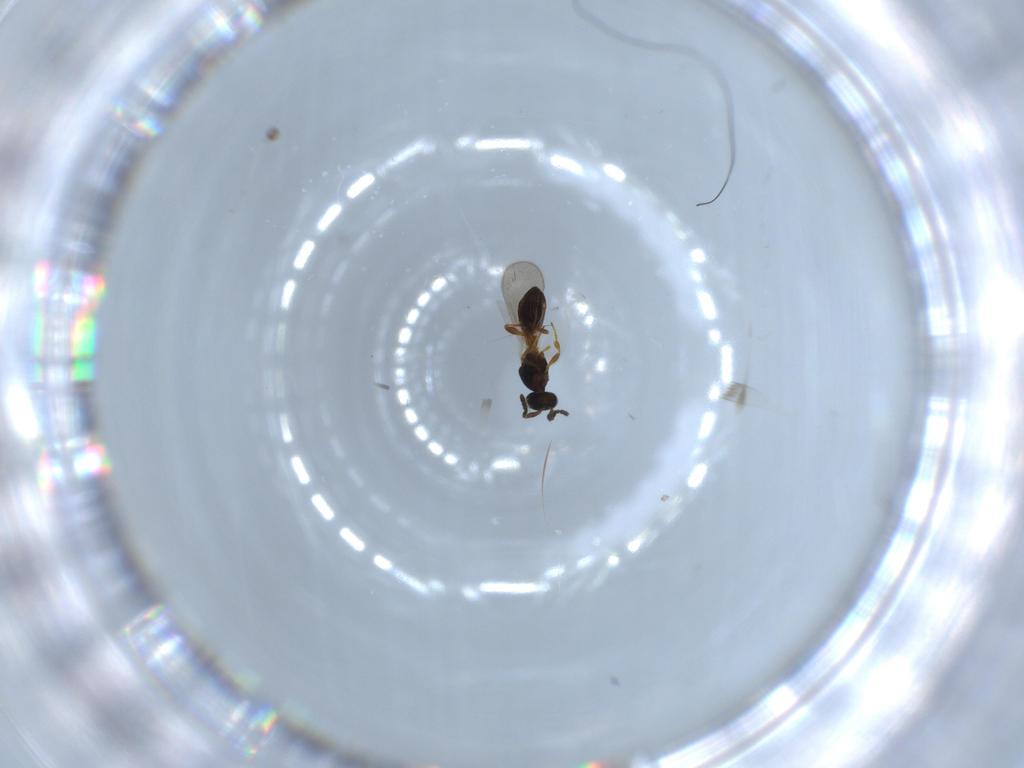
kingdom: Animalia
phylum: Arthropoda
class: Insecta
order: Hymenoptera
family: Platygastridae
